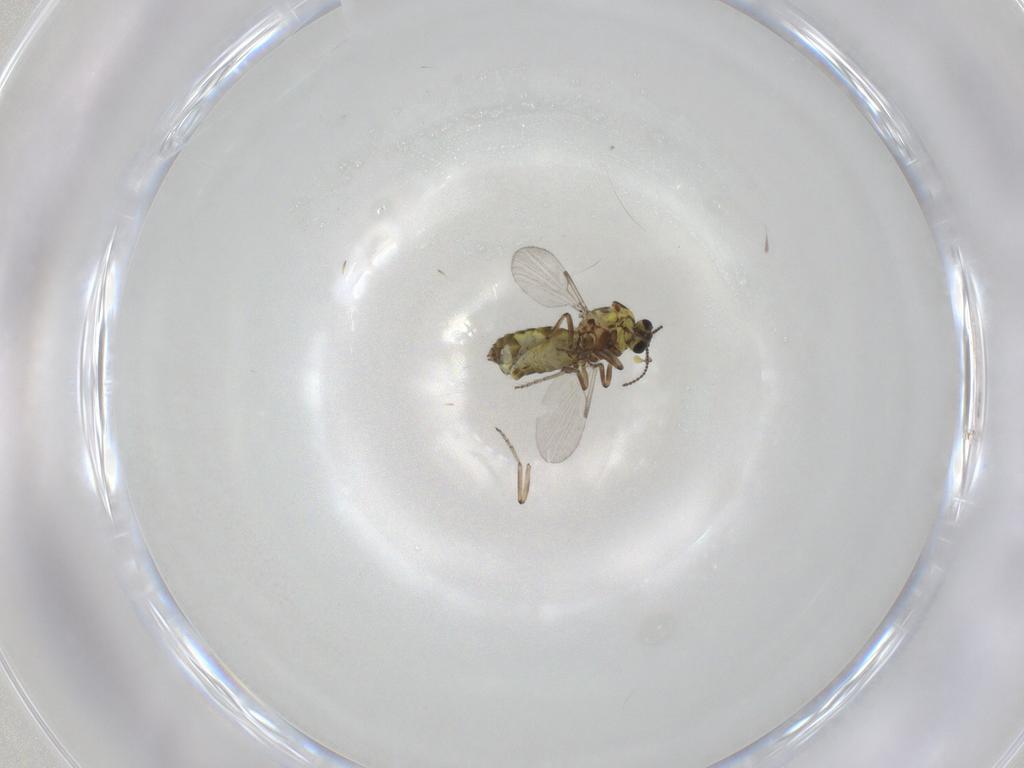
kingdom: Animalia
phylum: Arthropoda
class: Insecta
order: Diptera
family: Ceratopogonidae
